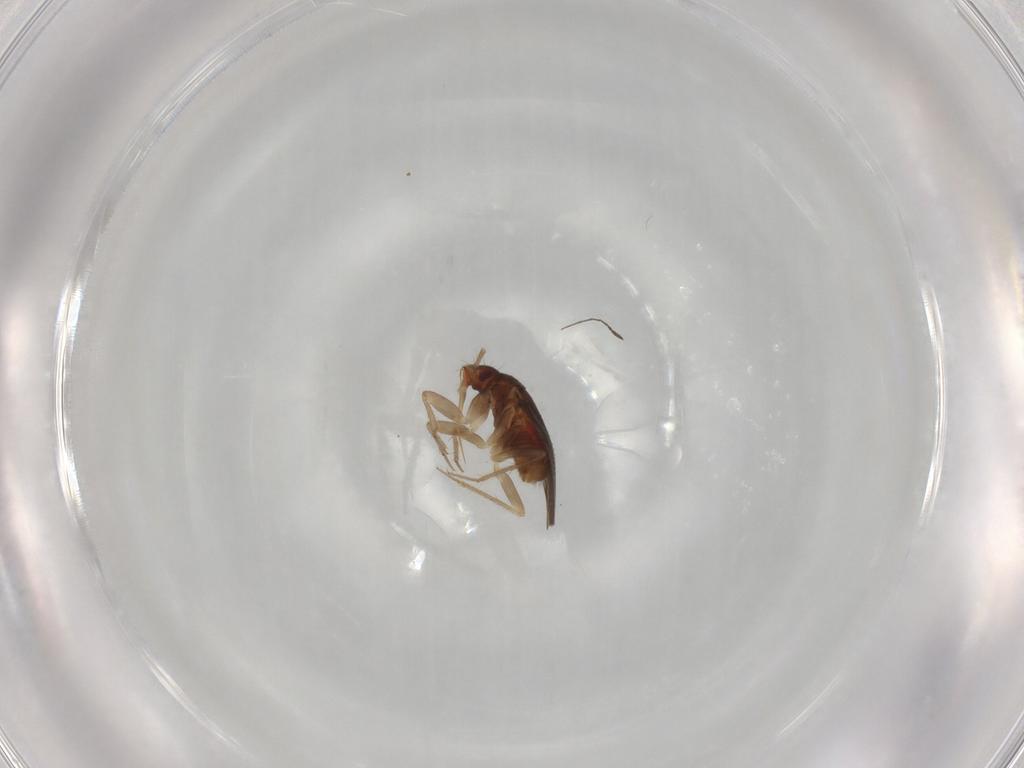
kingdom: Animalia
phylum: Arthropoda
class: Insecta
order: Hemiptera
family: Ceratocombidae
